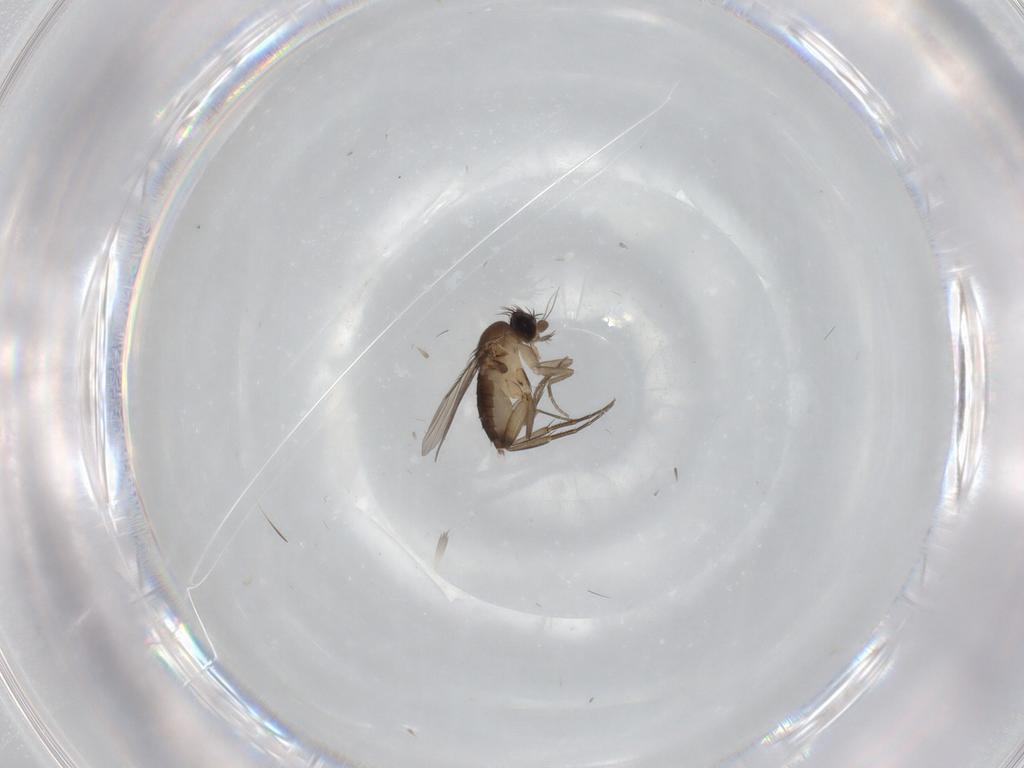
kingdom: Animalia
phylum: Arthropoda
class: Insecta
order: Diptera
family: Phoridae
